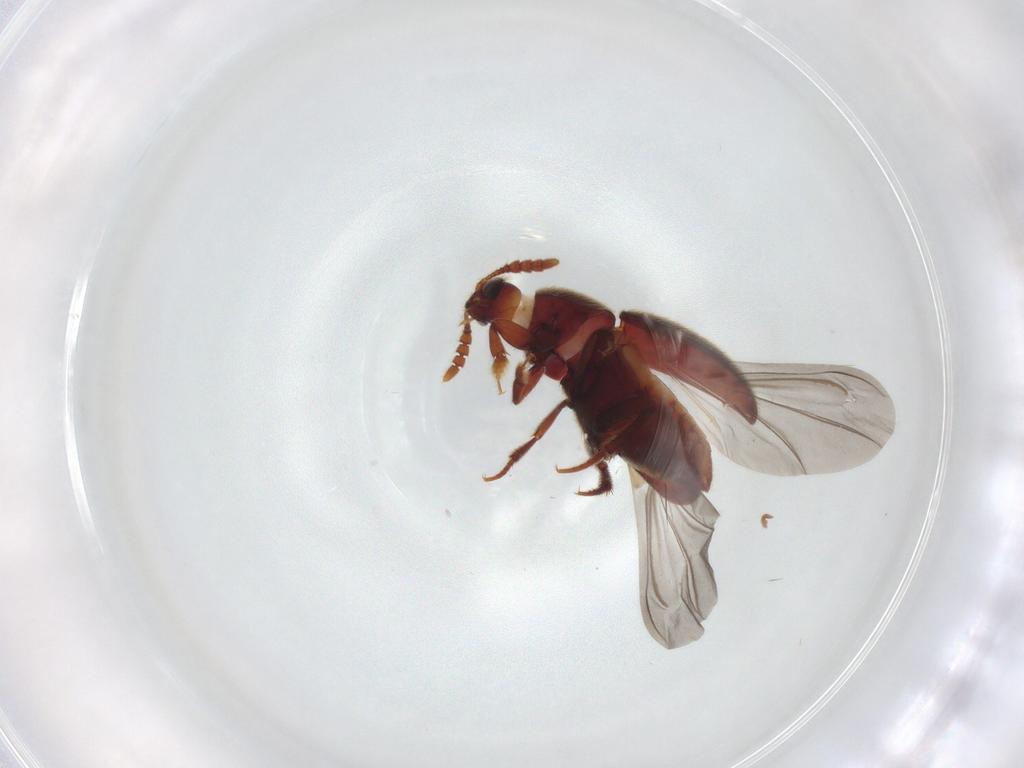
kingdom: Animalia
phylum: Arthropoda
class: Insecta
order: Coleoptera
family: Leiodidae
